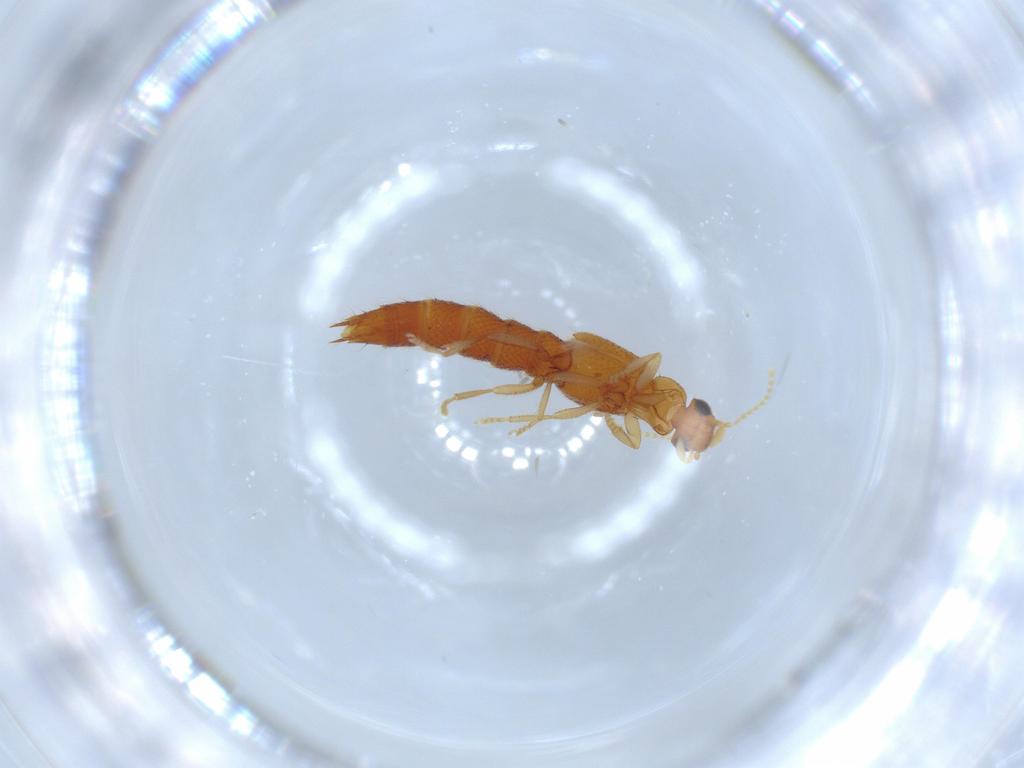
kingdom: Animalia
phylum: Arthropoda
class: Insecta
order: Coleoptera
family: Staphylinidae
